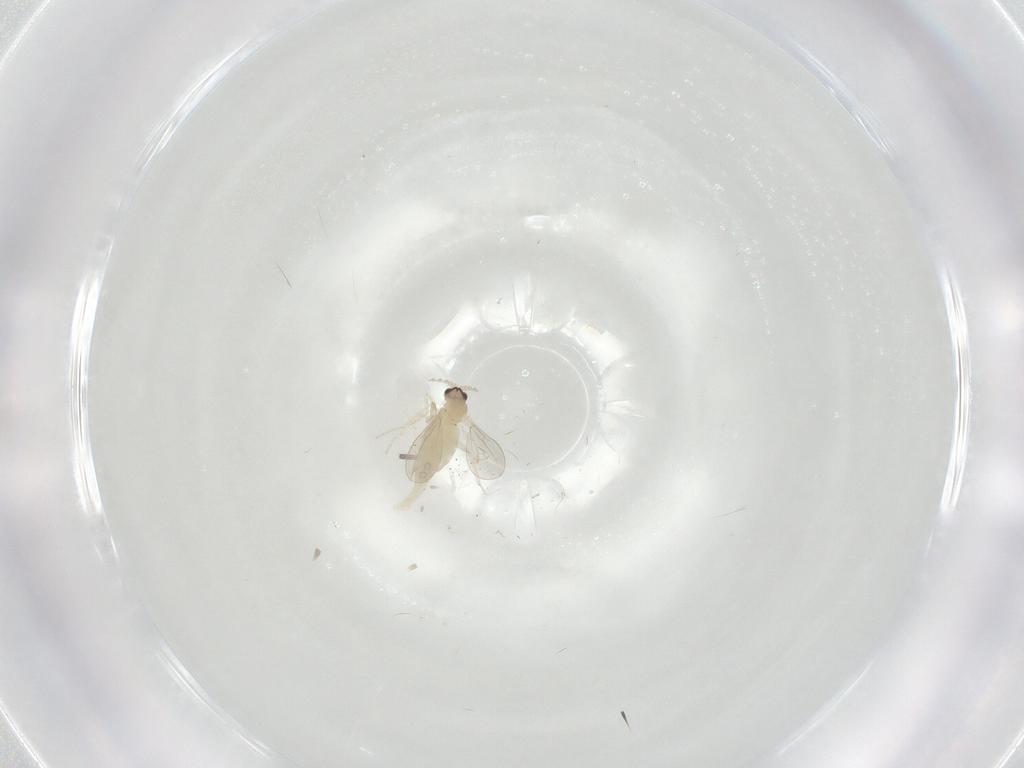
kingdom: Animalia
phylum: Arthropoda
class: Insecta
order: Diptera
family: Cecidomyiidae
